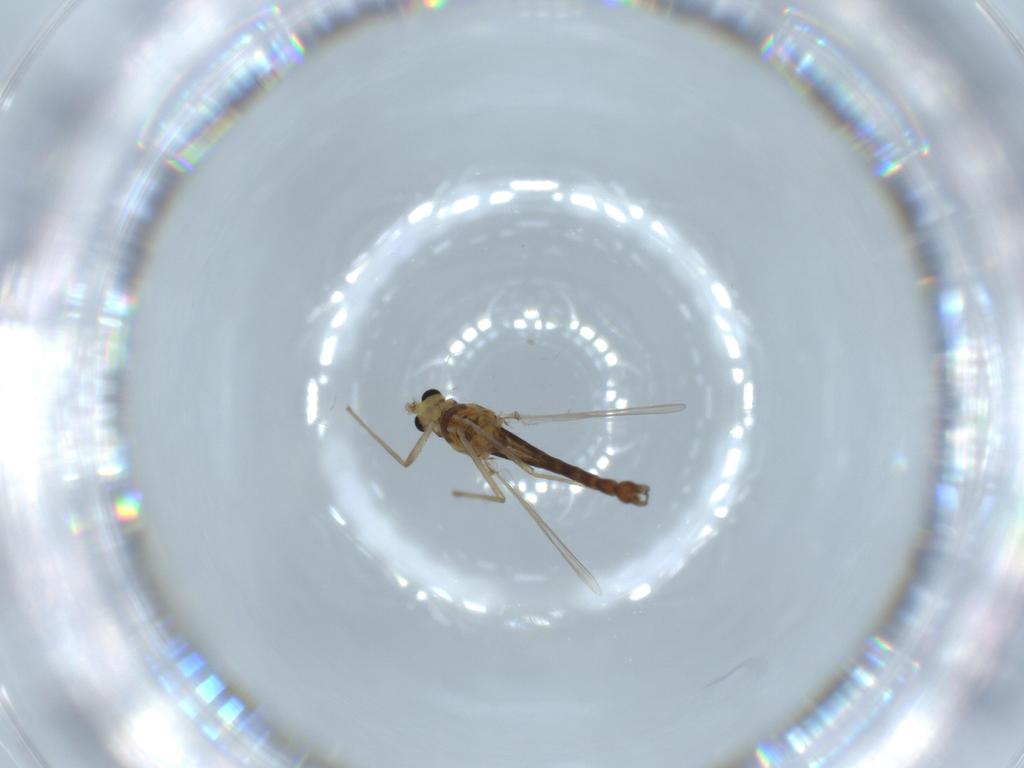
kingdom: Animalia
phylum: Arthropoda
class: Insecta
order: Diptera
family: Chironomidae
